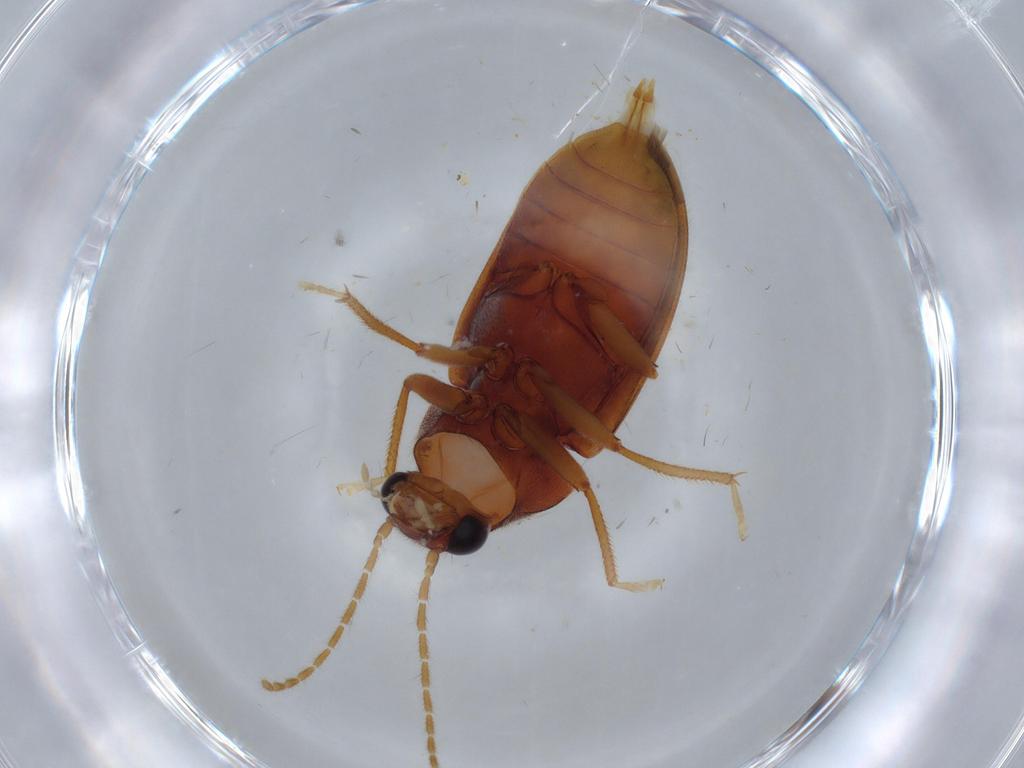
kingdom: Animalia
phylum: Arthropoda
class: Insecta
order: Coleoptera
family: Ptilodactylidae
